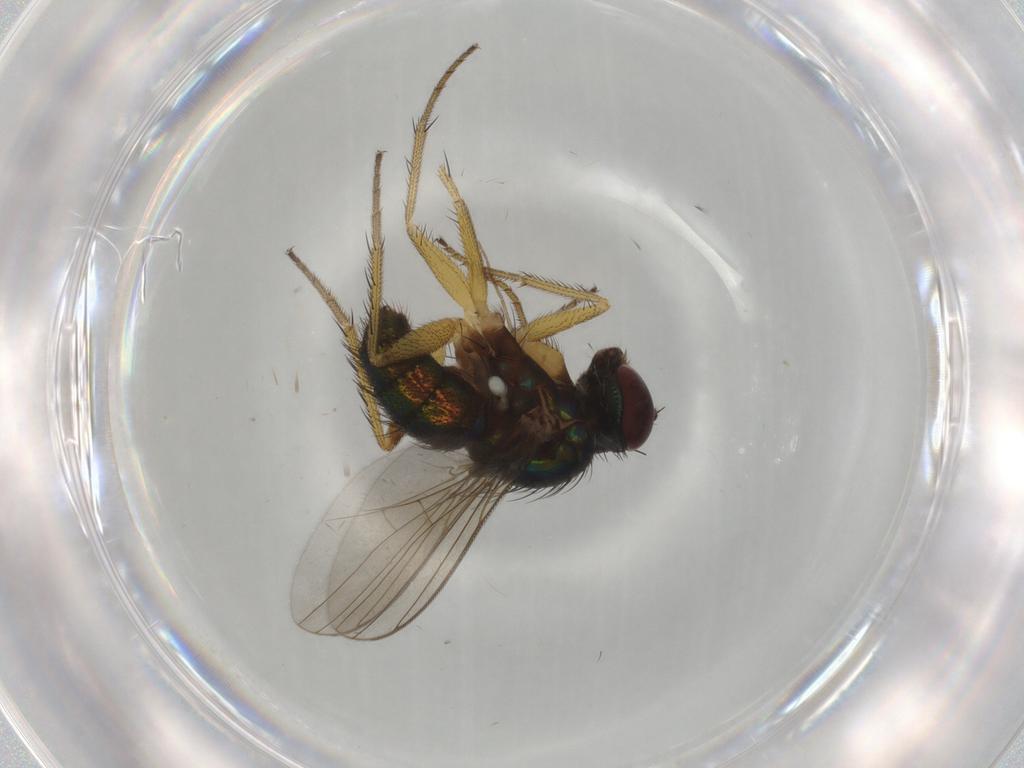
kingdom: Animalia
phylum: Arthropoda
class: Insecta
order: Diptera
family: Dolichopodidae
